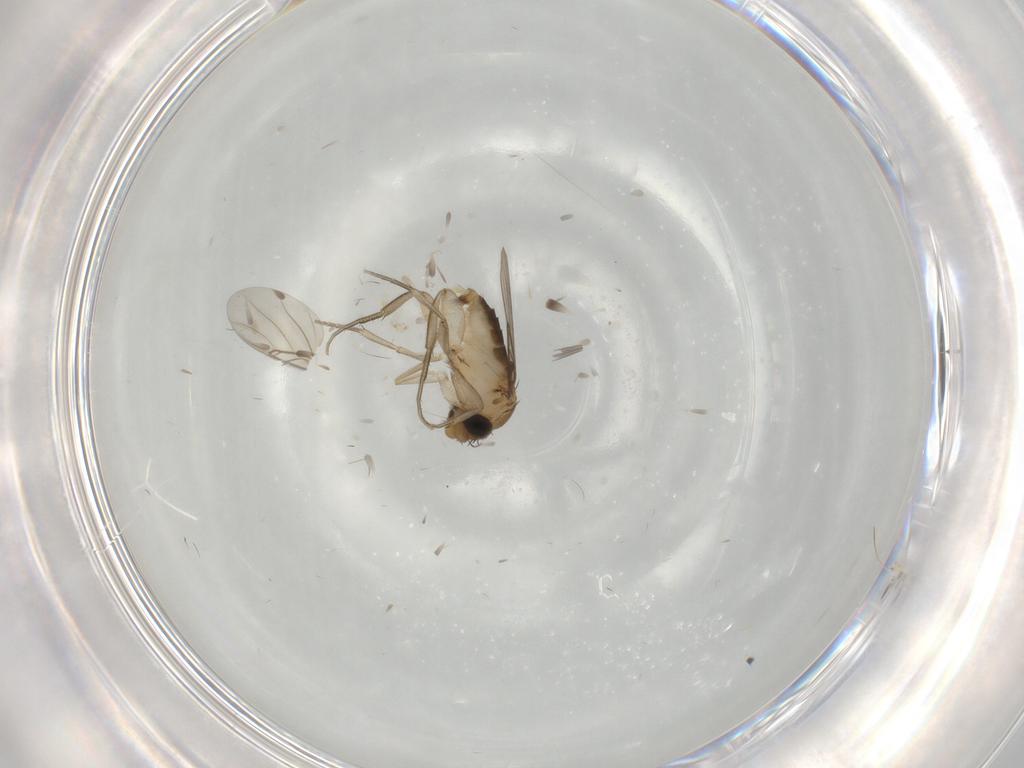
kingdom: Animalia
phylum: Arthropoda
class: Insecta
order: Diptera
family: Phoridae
